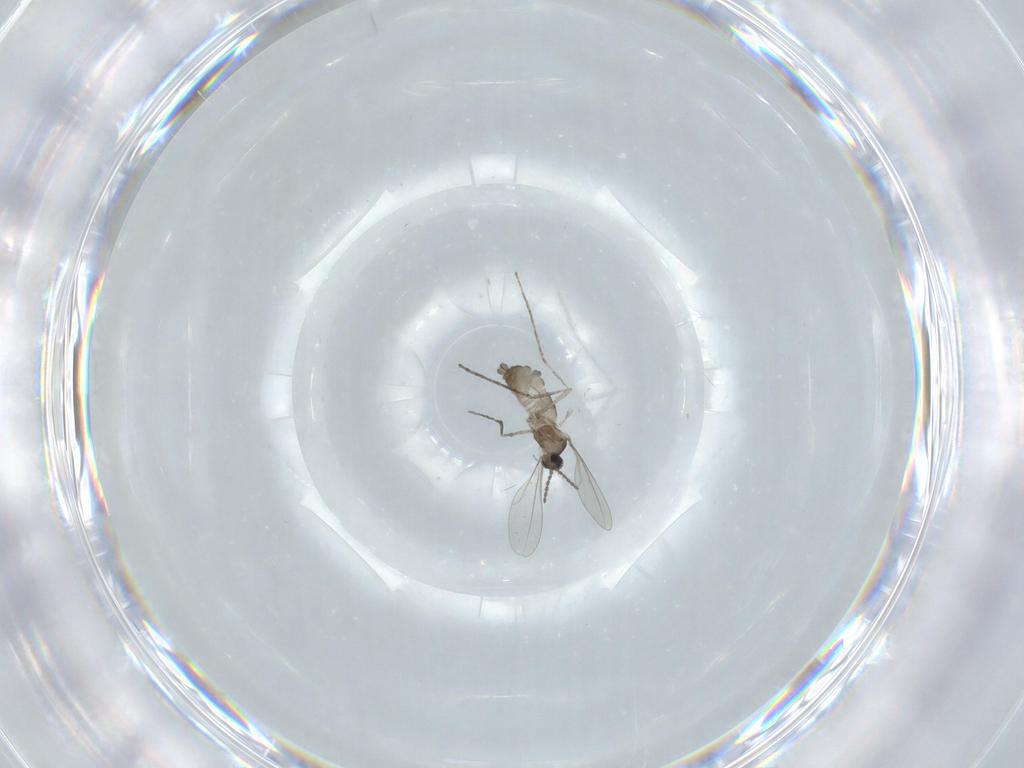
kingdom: Animalia
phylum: Arthropoda
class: Insecta
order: Diptera
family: Cecidomyiidae
